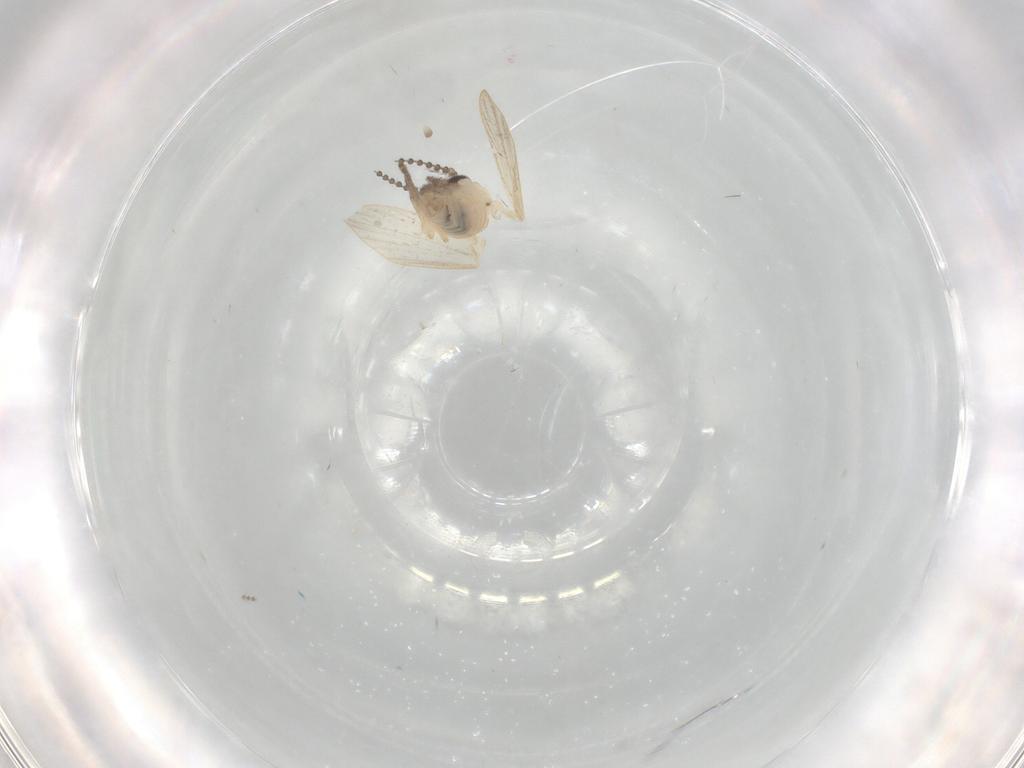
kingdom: Animalia
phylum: Arthropoda
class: Insecta
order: Diptera
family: Psychodidae
